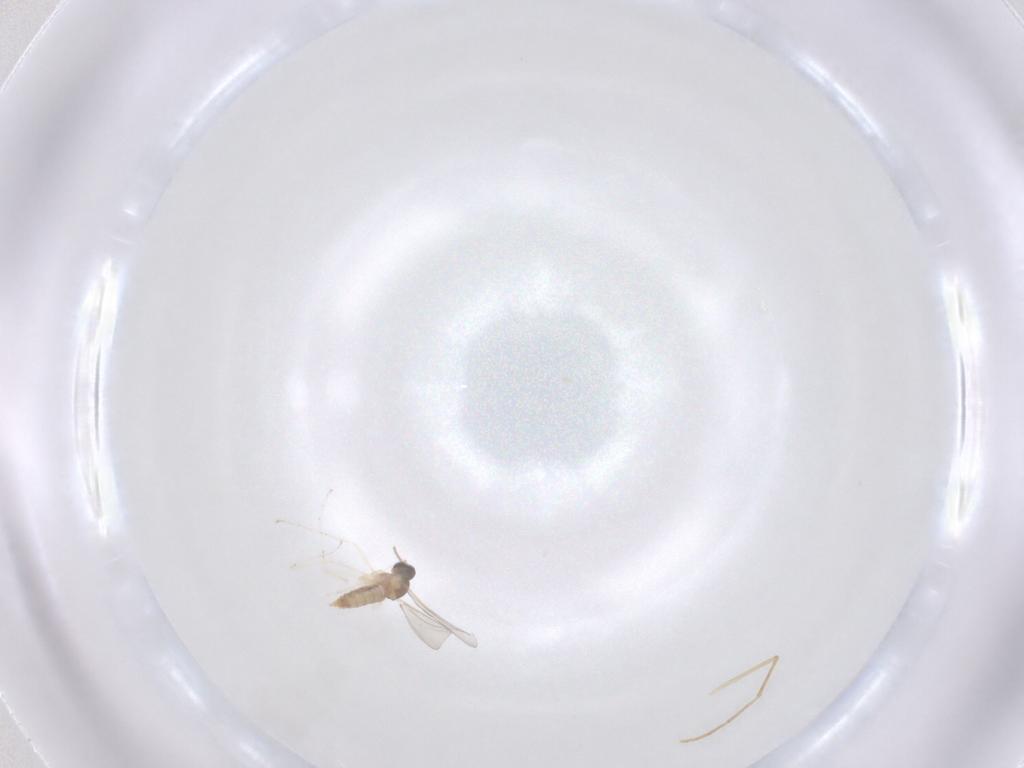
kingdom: Animalia
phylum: Arthropoda
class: Insecta
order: Diptera
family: Cecidomyiidae
